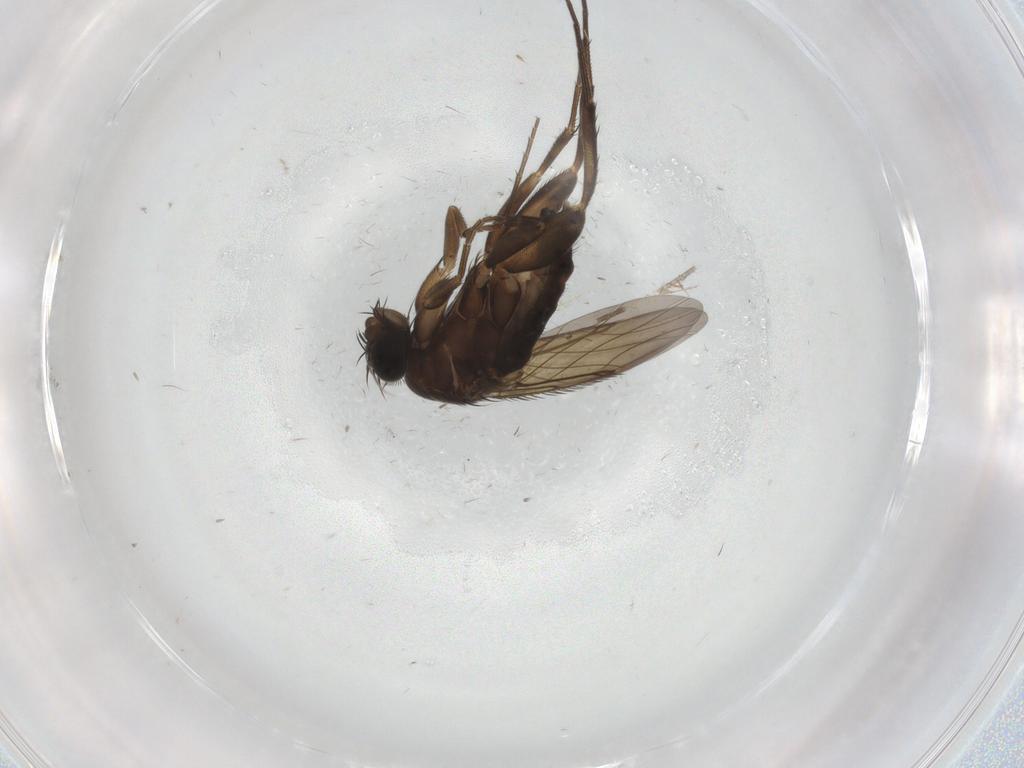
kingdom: Animalia
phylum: Arthropoda
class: Insecta
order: Diptera
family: Phoridae
